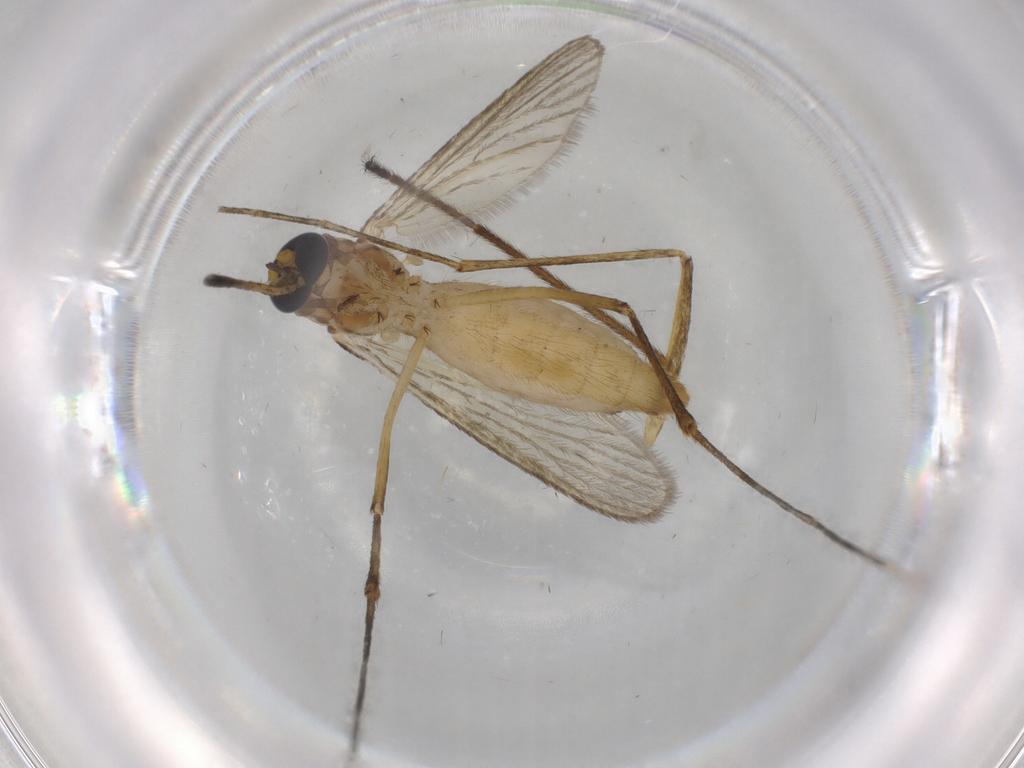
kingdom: Animalia
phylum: Arthropoda
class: Insecta
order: Diptera
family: Culicidae
